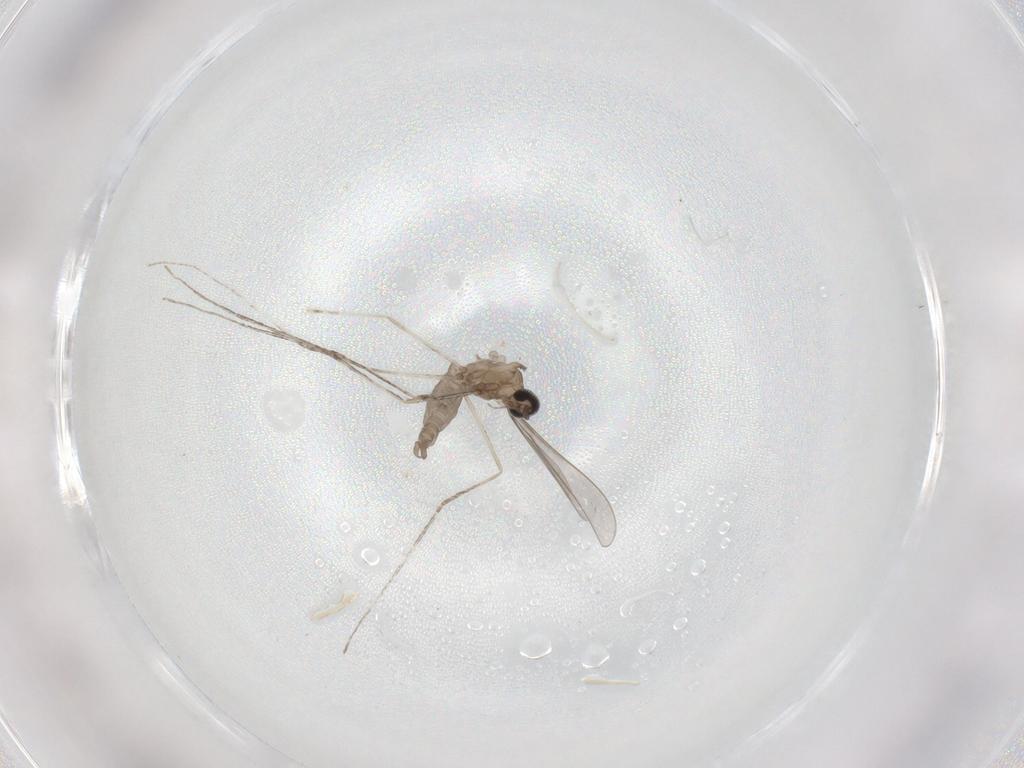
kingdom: Animalia
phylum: Arthropoda
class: Insecta
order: Diptera
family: Cecidomyiidae
